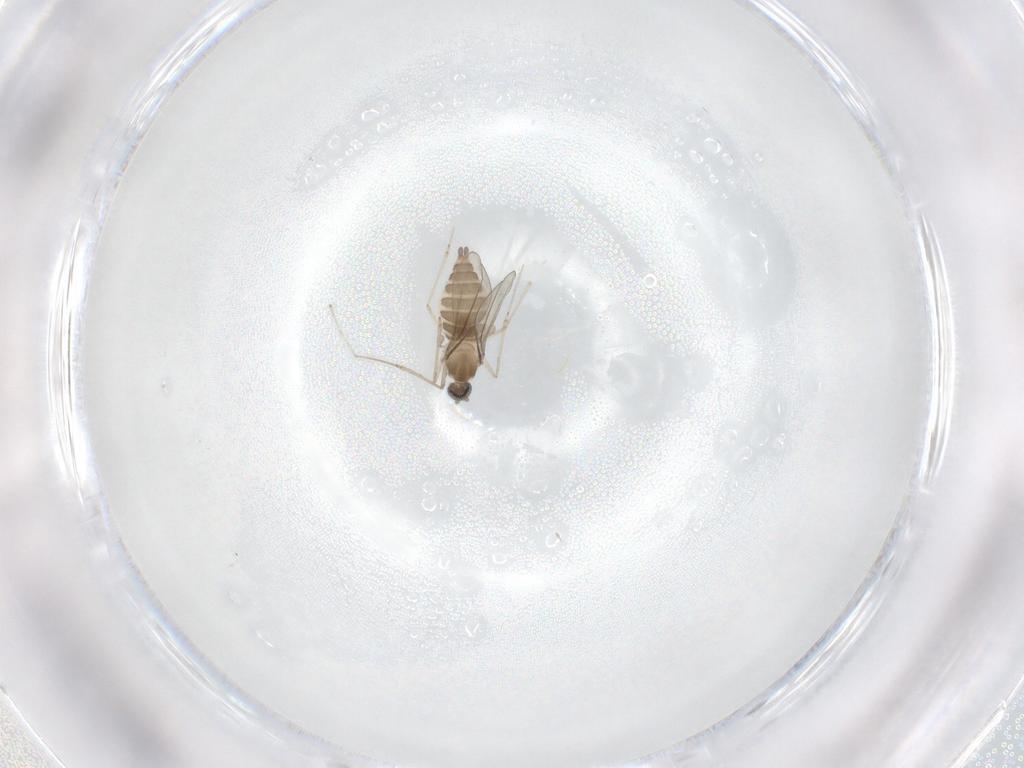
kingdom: Animalia
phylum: Arthropoda
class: Insecta
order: Diptera
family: Cecidomyiidae
